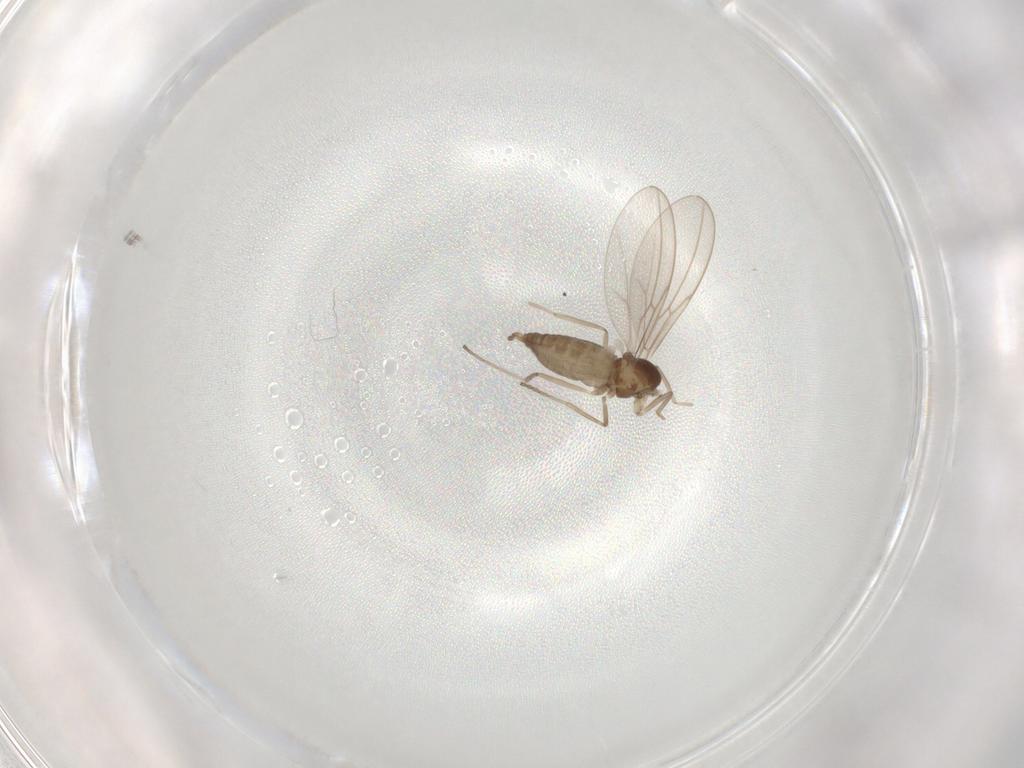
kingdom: Animalia
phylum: Arthropoda
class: Insecta
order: Diptera
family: Cecidomyiidae
